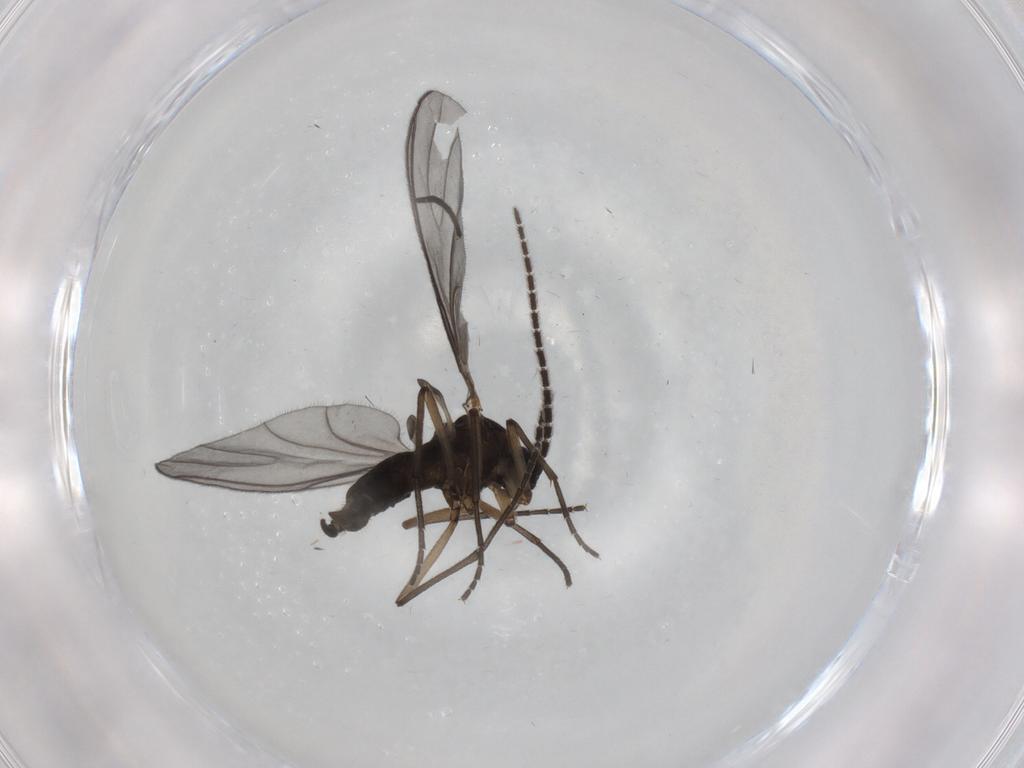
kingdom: Animalia
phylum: Arthropoda
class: Insecta
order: Diptera
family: Sciaridae
